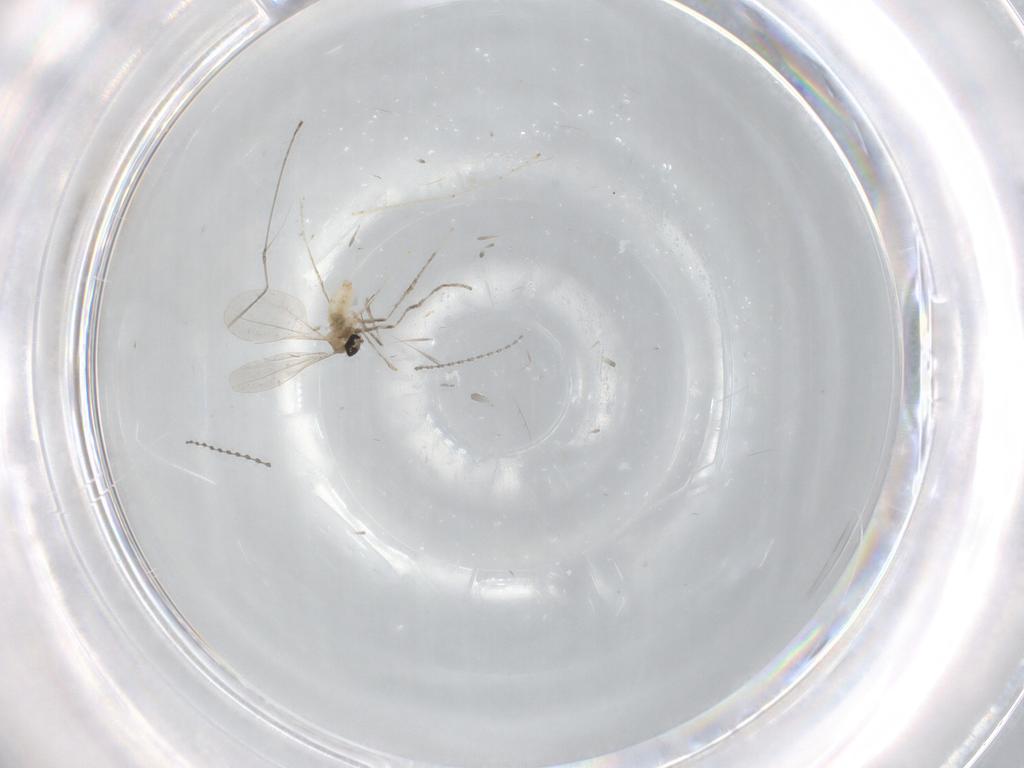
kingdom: Animalia
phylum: Arthropoda
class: Insecta
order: Diptera
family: Cecidomyiidae
